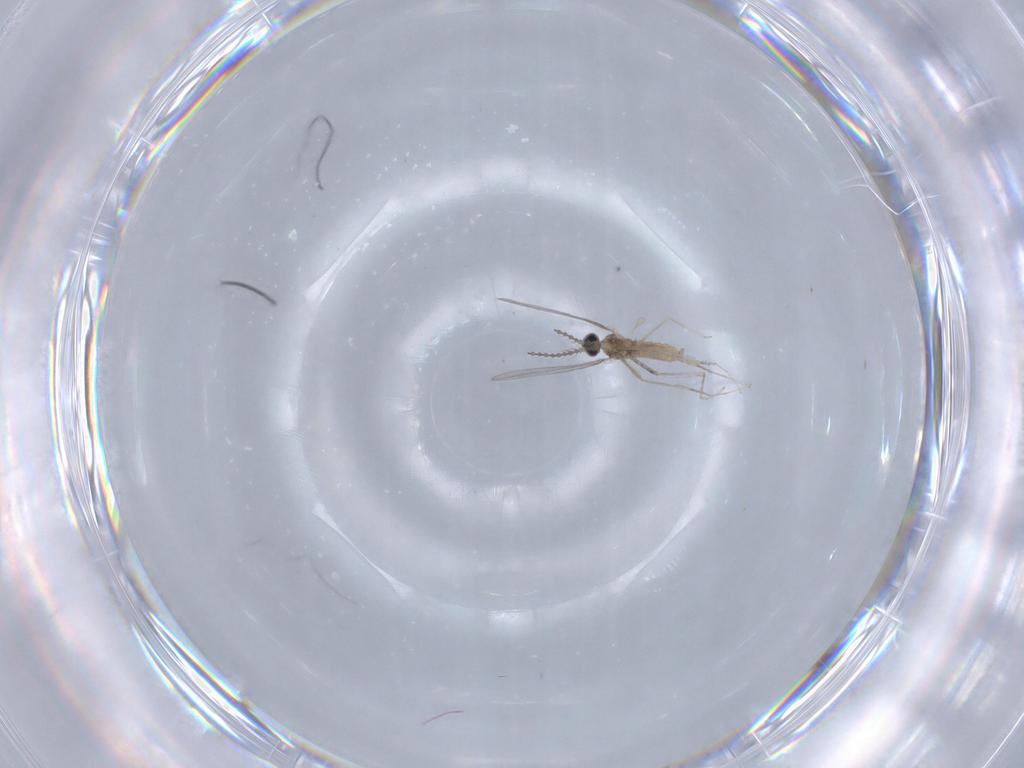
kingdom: Animalia
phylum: Arthropoda
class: Insecta
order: Diptera
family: Cecidomyiidae
